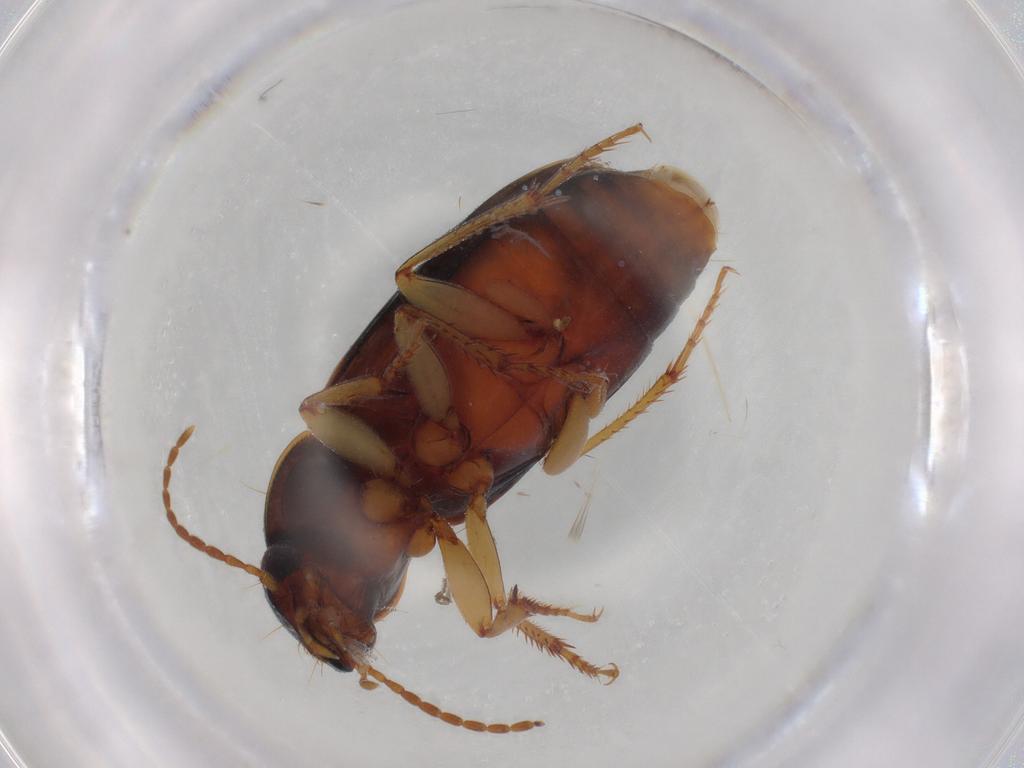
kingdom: Animalia
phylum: Arthropoda
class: Insecta
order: Coleoptera
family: Carabidae
